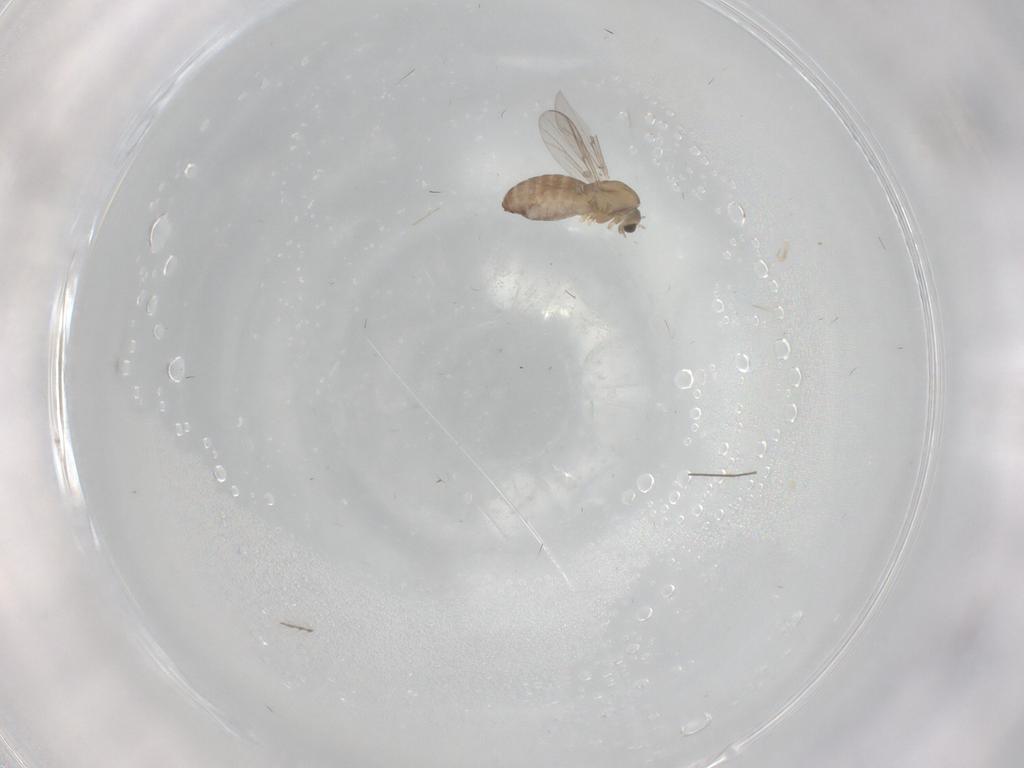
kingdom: Animalia
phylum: Arthropoda
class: Insecta
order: Diptera
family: Chironomidae
